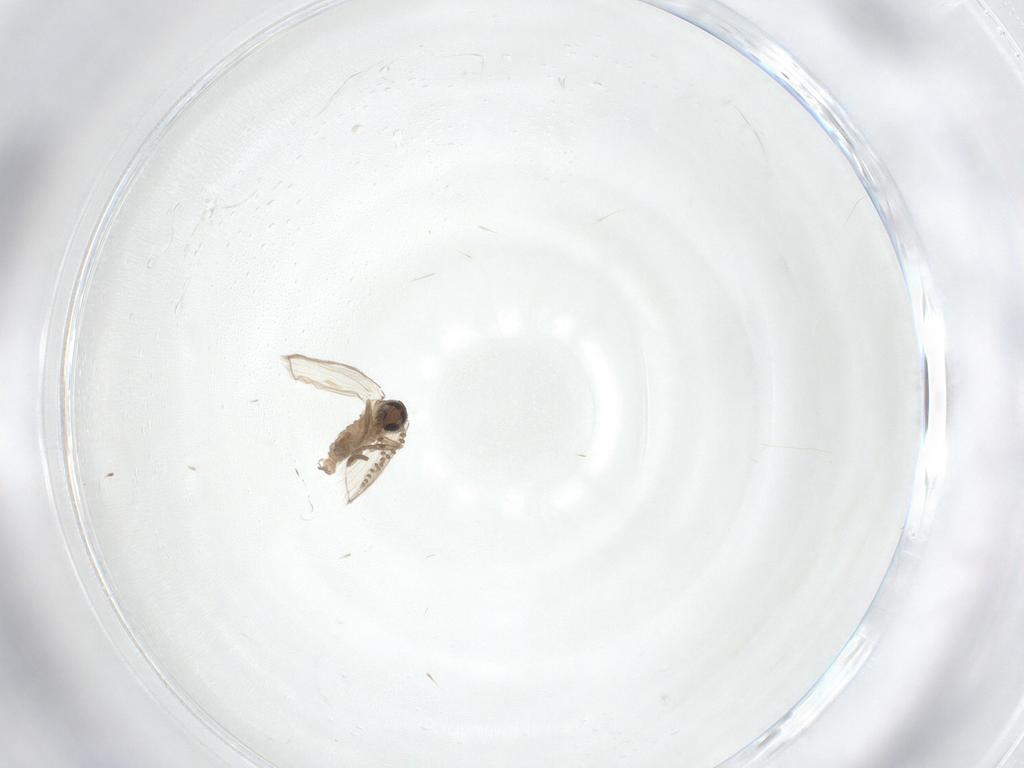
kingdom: Animalia
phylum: Arthropoda
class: Insecta
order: Diptera
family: Psychodidae
